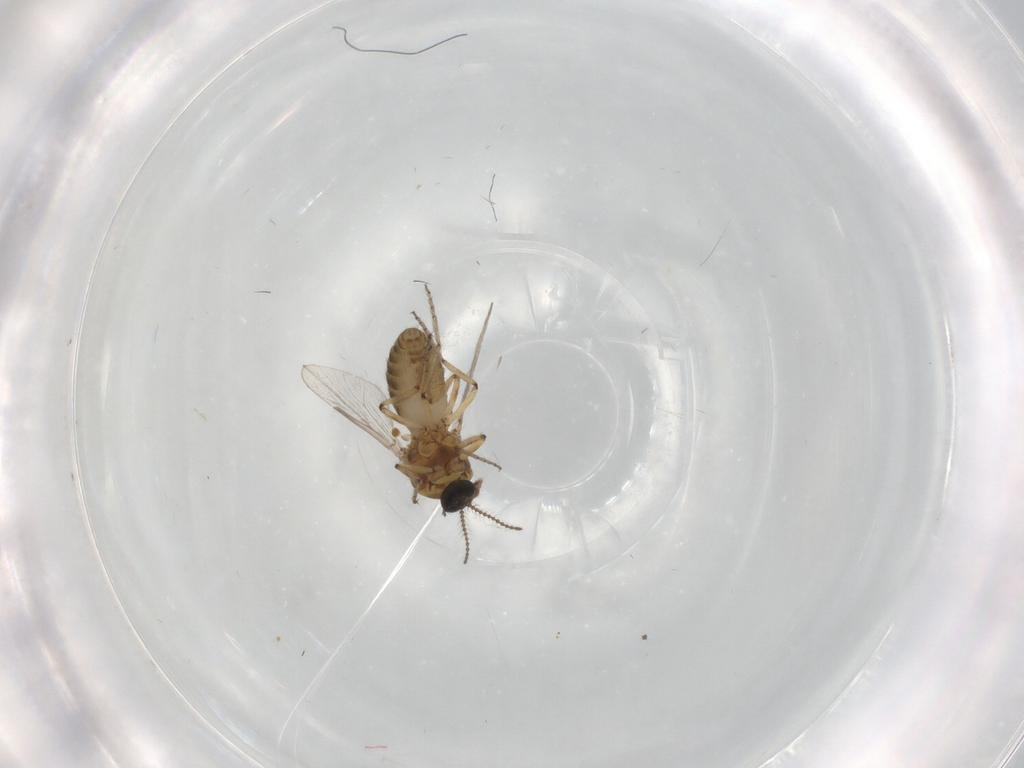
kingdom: Animalia
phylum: Arthropoda
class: Insecta
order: Diptera
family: Ceratopogonidae
